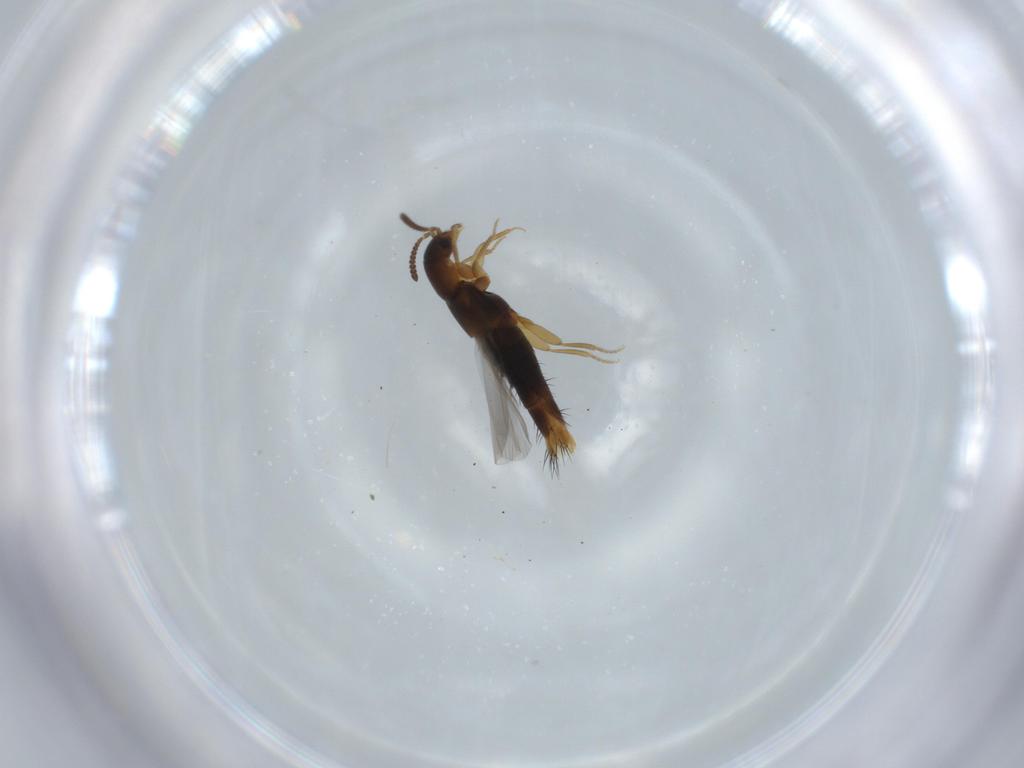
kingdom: Animalia
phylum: Arthropoda
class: Insecta
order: Coleoptera
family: Staphylinidae
